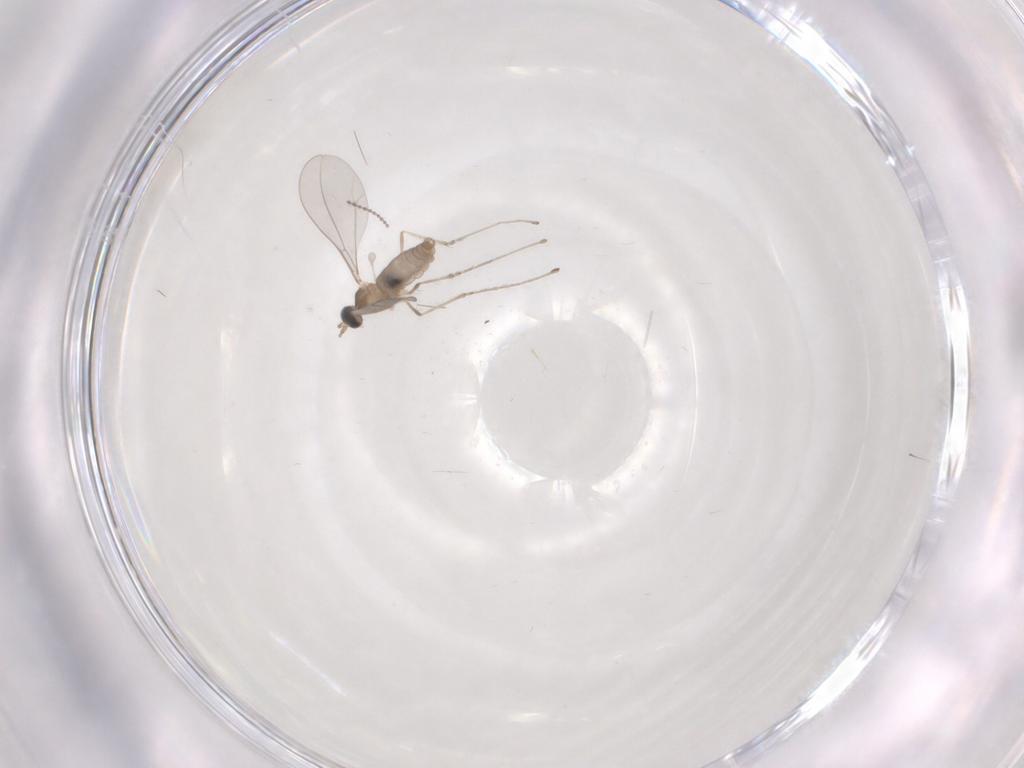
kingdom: Animalia
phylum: Arthropoda
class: Insecta
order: Diptera
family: Cecidomyiidae
